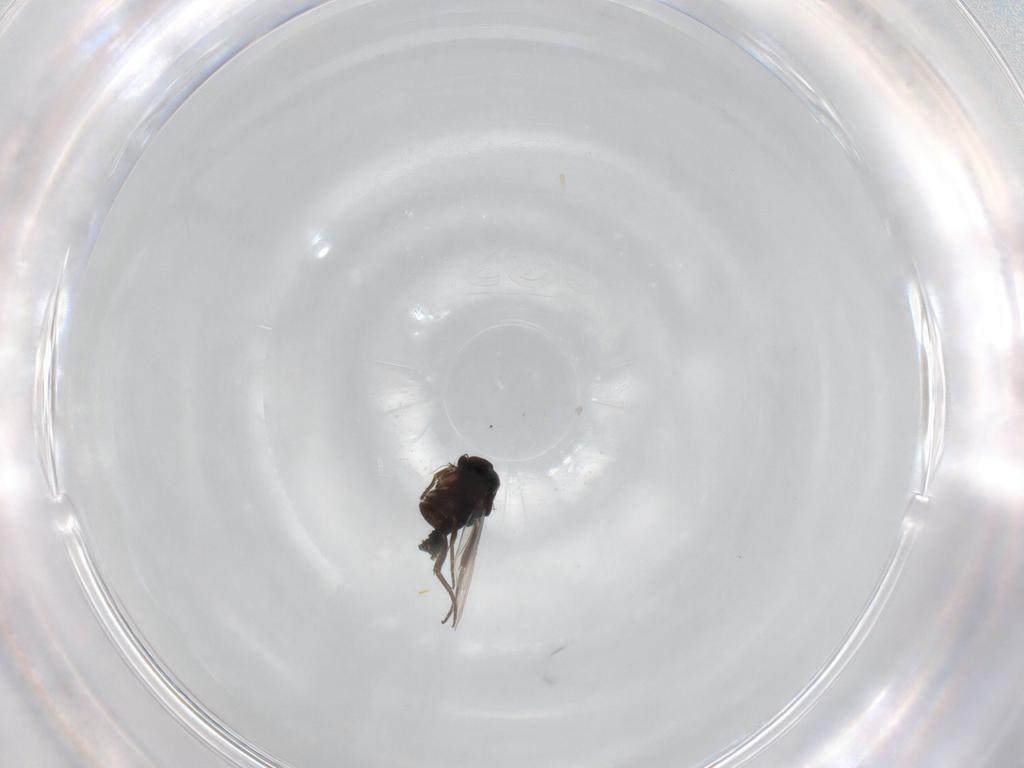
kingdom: Animalia
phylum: Arthropoda
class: Insecta
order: Diptera
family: Phoridae
